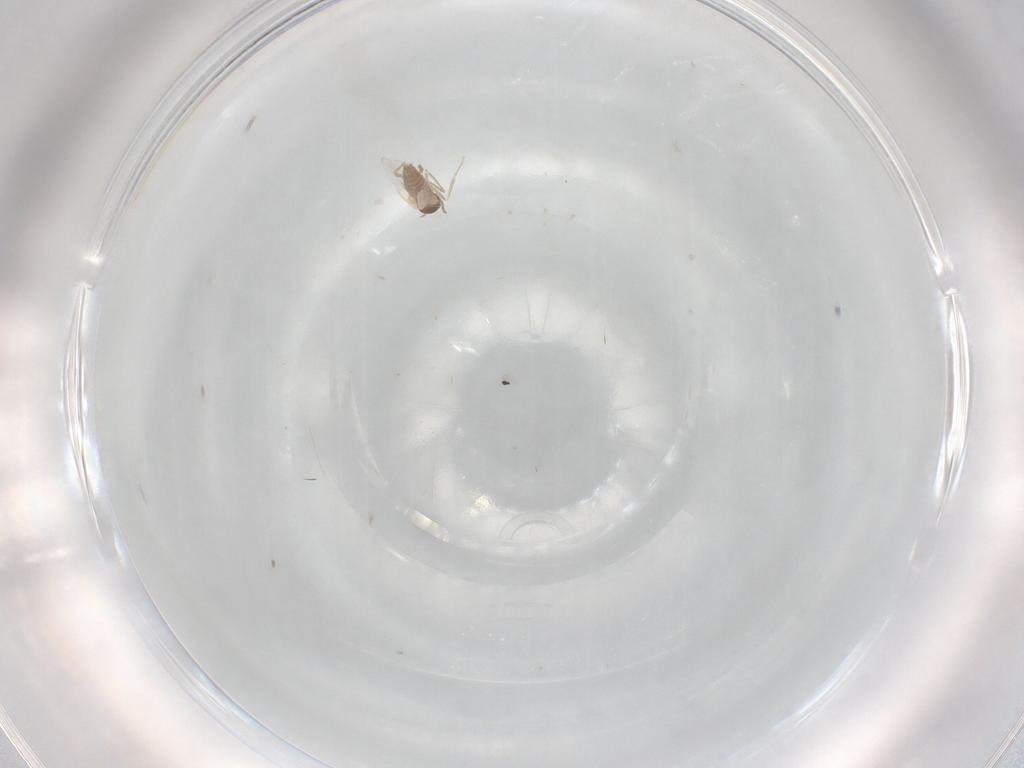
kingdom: Animalia
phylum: Arthropoda
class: Insecta
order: Diptera
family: Cecidomyiidae
